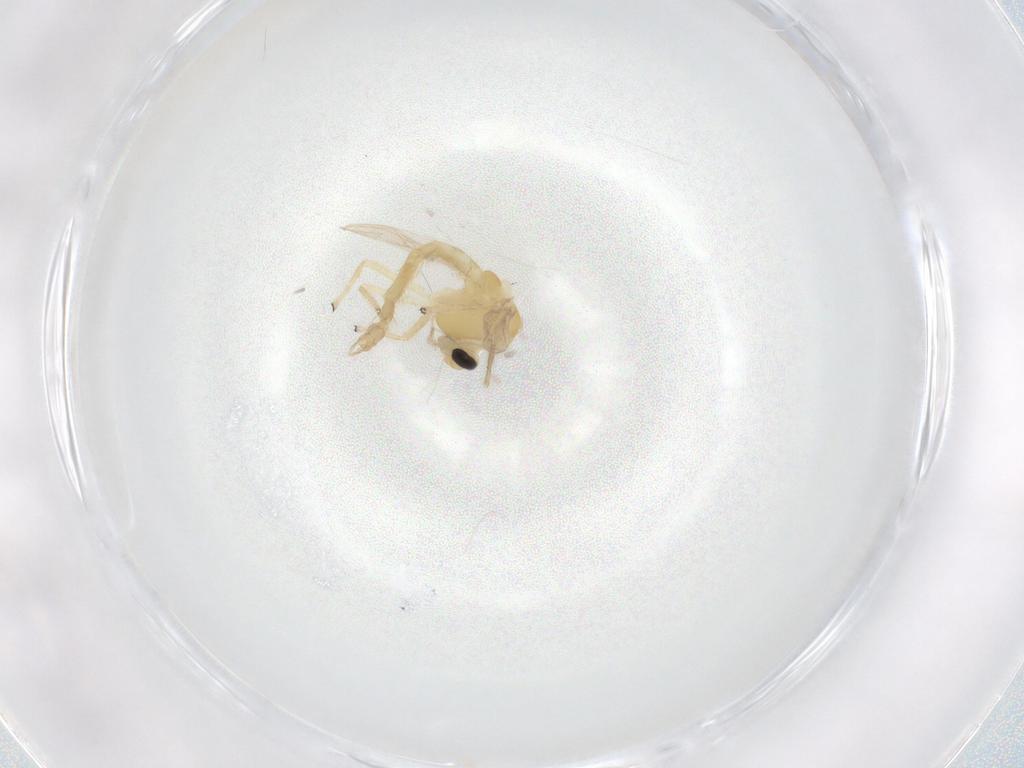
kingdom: Animalia
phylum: Arthropoda
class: Insecta
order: Diptera
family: Chironomidae
